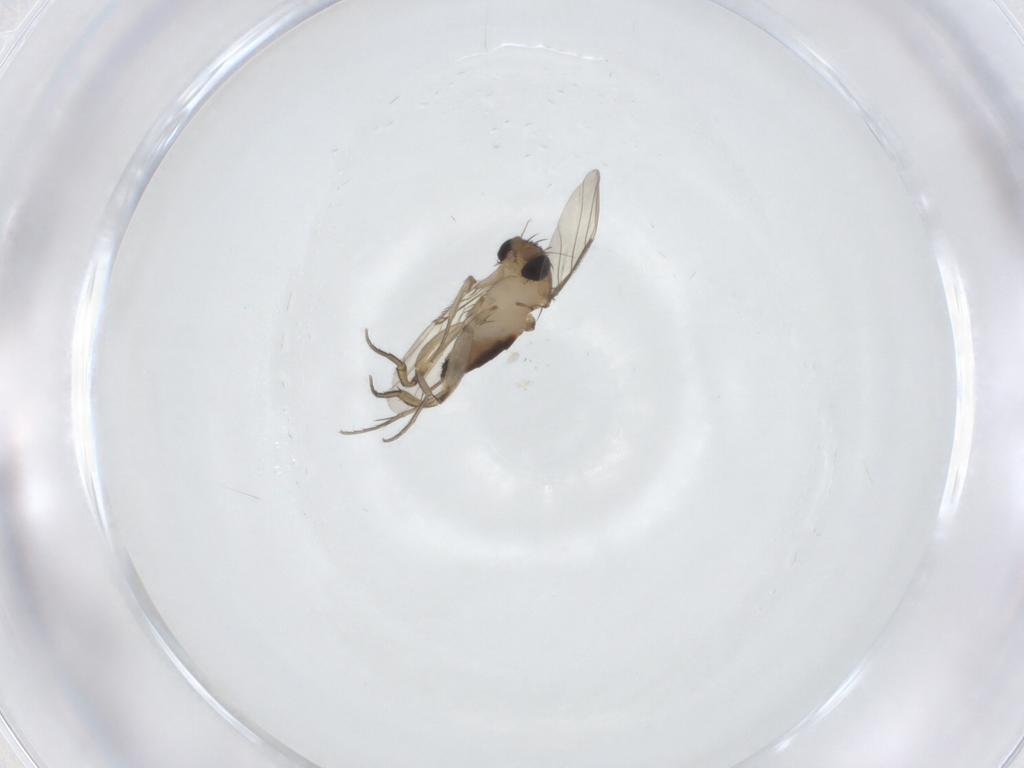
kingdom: Animalia
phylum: Arthropoda
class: Insecta
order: Diptera
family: Phoridae
